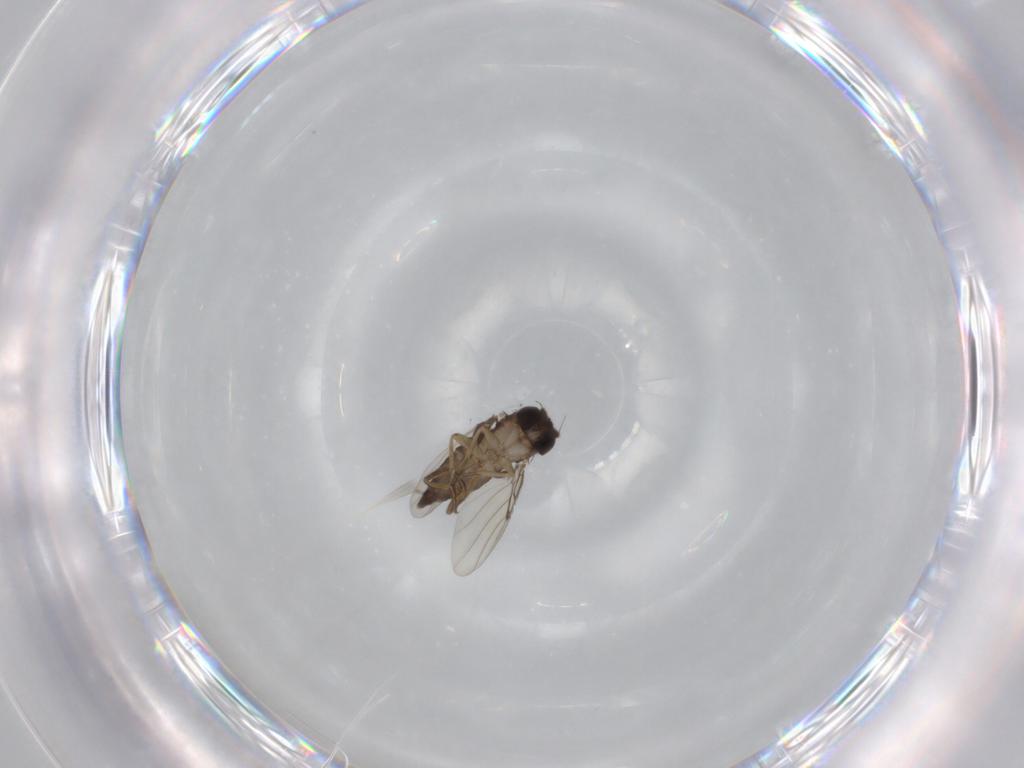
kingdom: Animalia
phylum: Arthropoda
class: Insecta
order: Diptera
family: Phoridae
